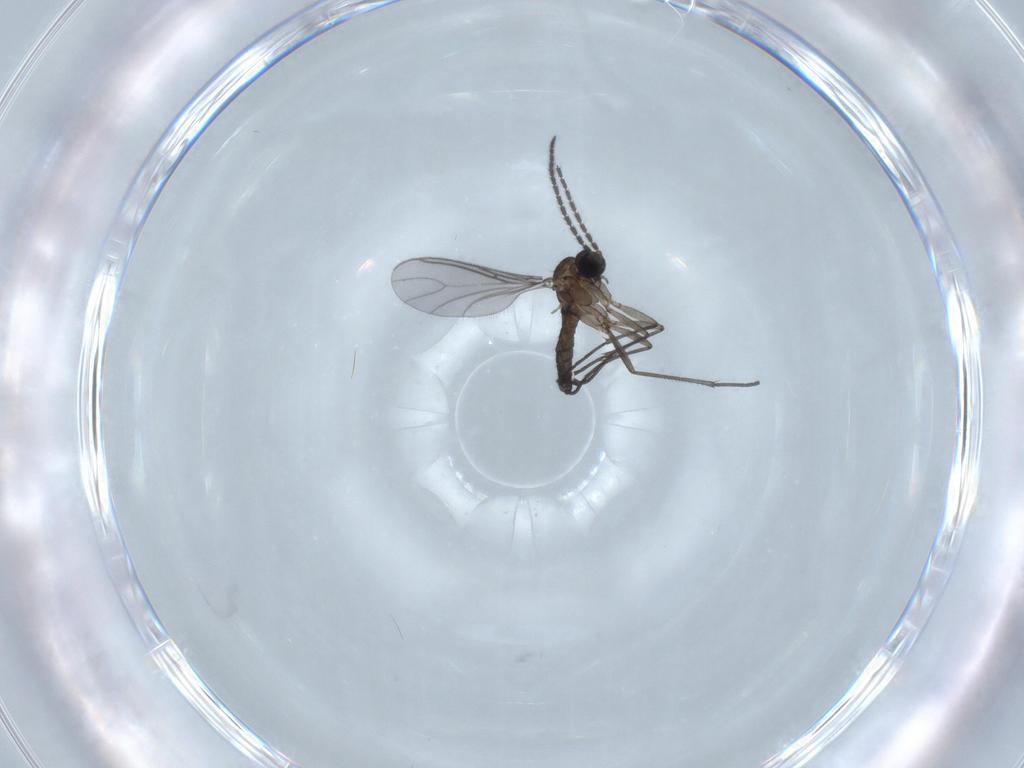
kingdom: Animalia
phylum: Arthropoda
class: Insecta
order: Diptera
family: Sciaridae
